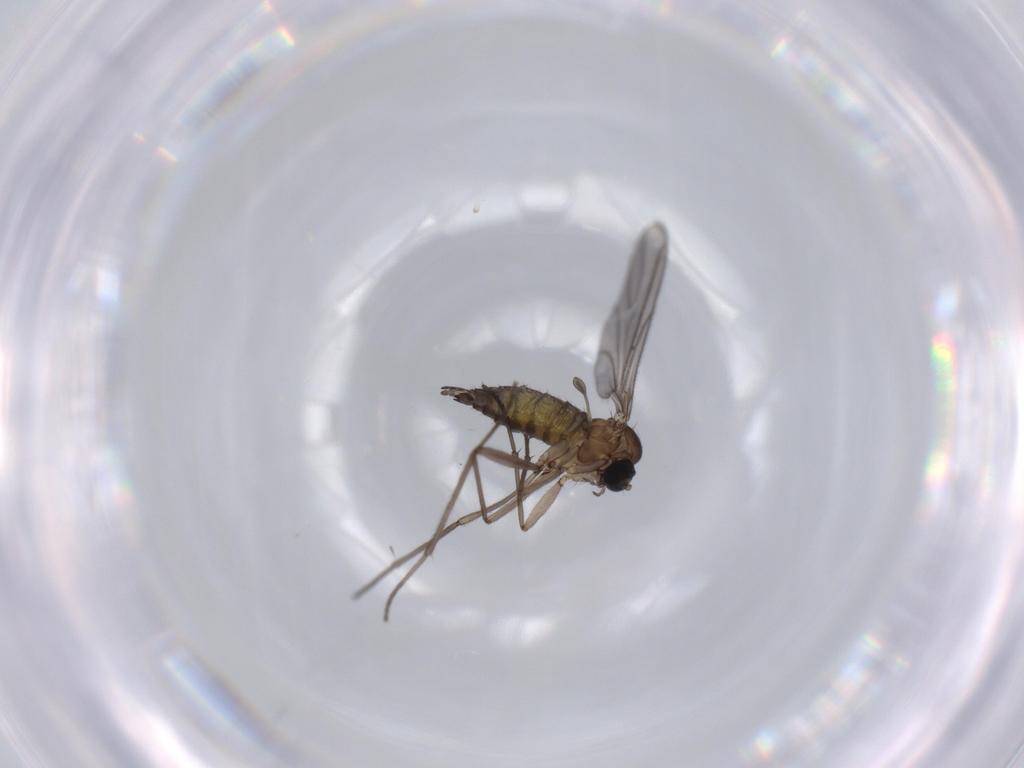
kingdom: Animalia
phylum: Arthropoda
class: Insecta
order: Diptera
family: Sciaridae
